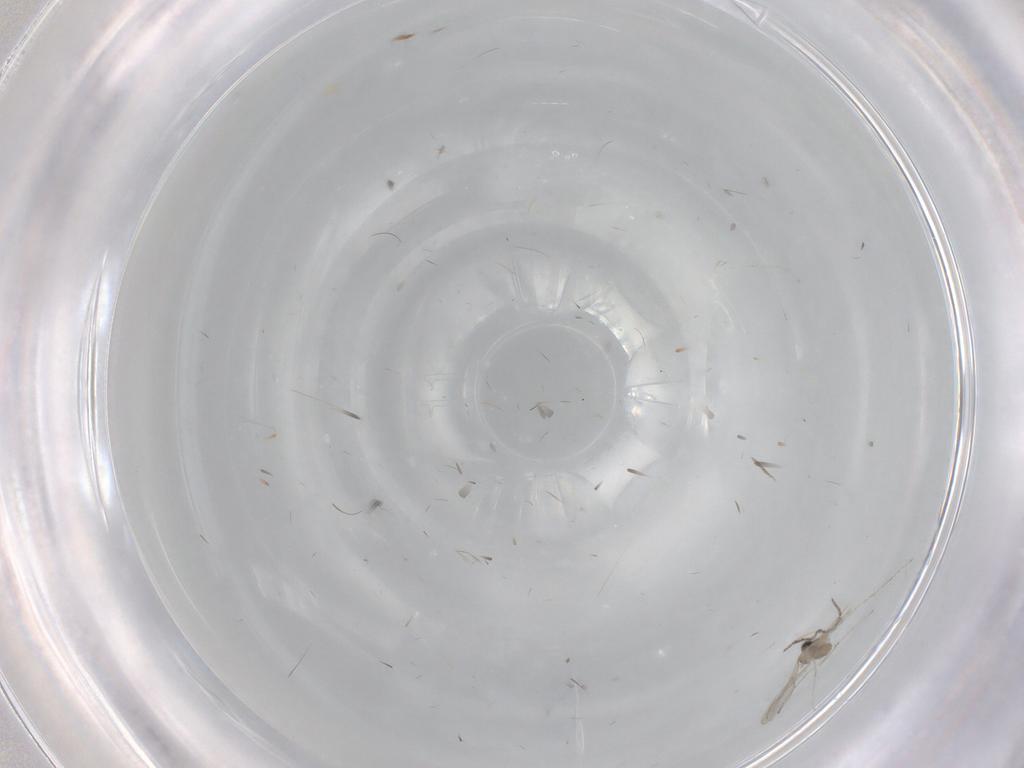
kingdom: Animalia
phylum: Arthropoda
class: Insecta
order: Diptera
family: Cecidomyiidae
